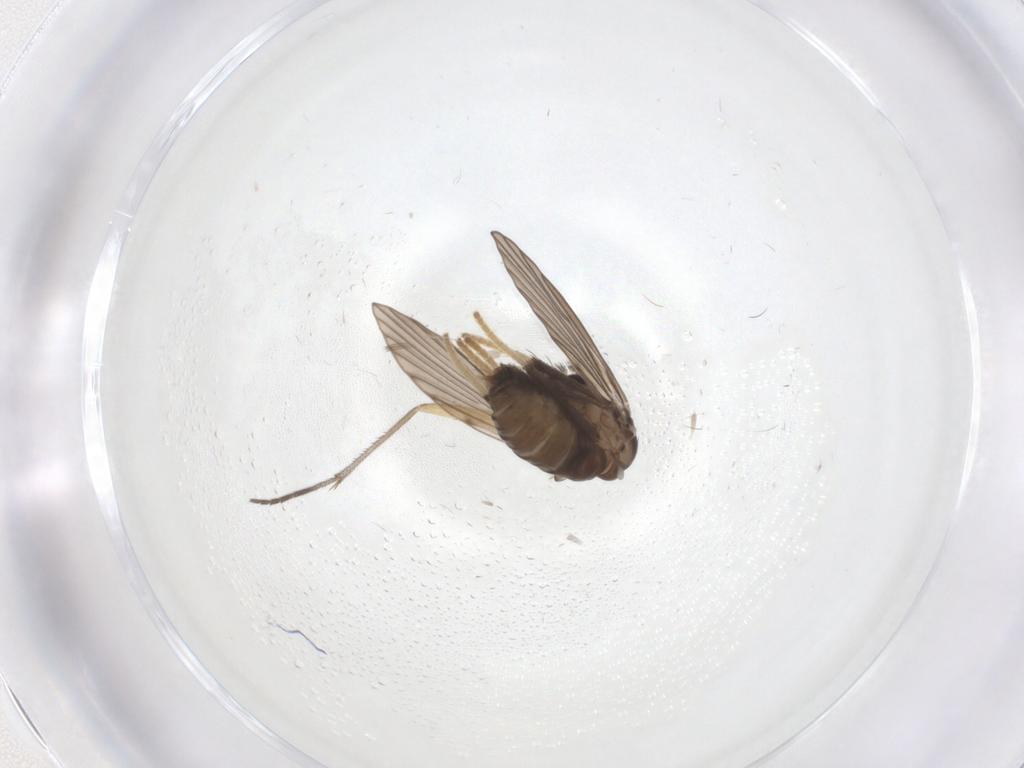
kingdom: Animalia
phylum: Arthropoda
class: Insecta
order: Diptera
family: Psychodidae
